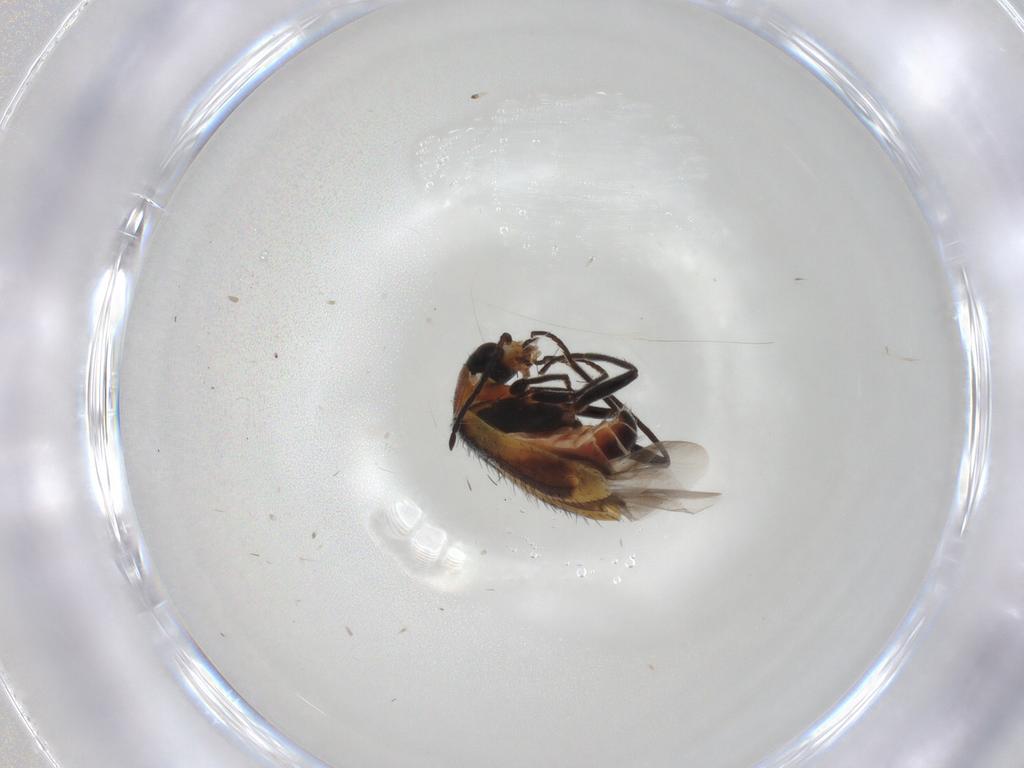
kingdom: Animalia
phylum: Arthropoda
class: Insecta
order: Coleoptera
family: Melyridae
